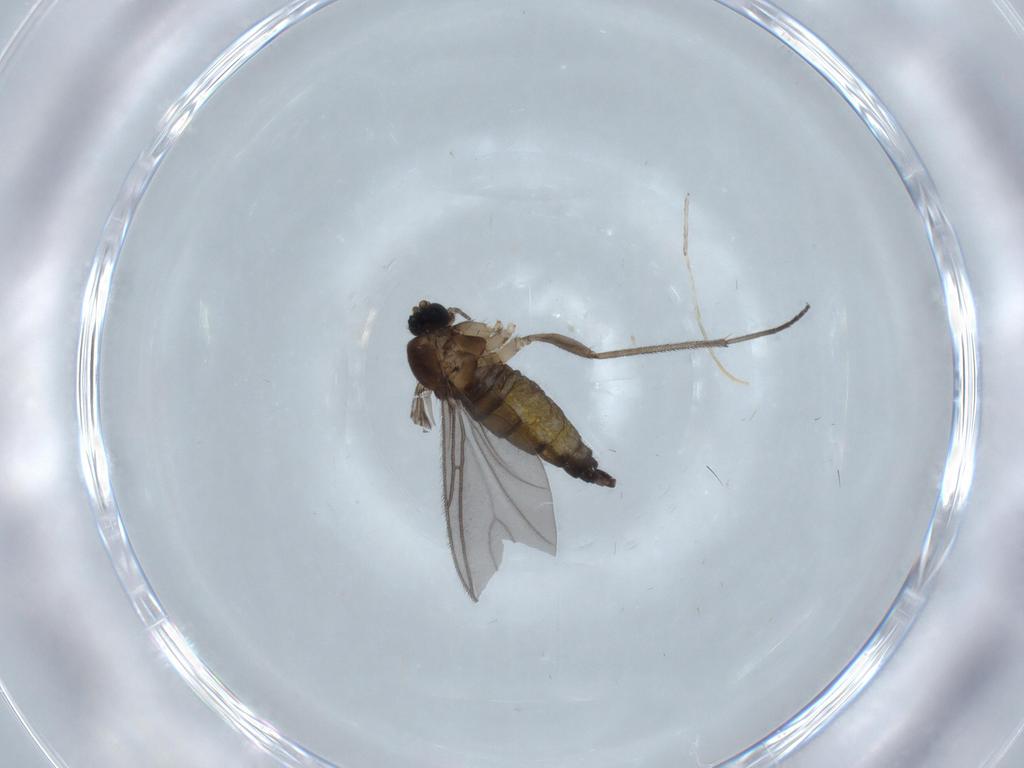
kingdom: Animalia
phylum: Arthropoda
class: Insecta
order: Diptera
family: Sciaridae
